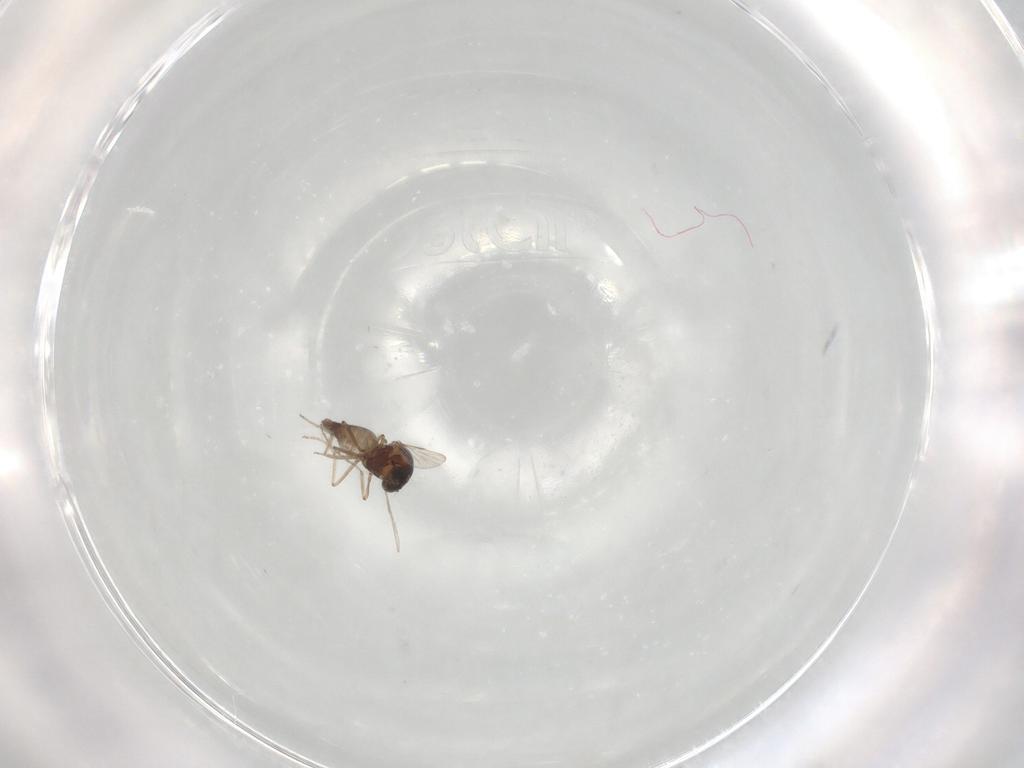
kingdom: Animalia
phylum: Arthropoda
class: Insecta
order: Diptera
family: Ceratopogonidae
